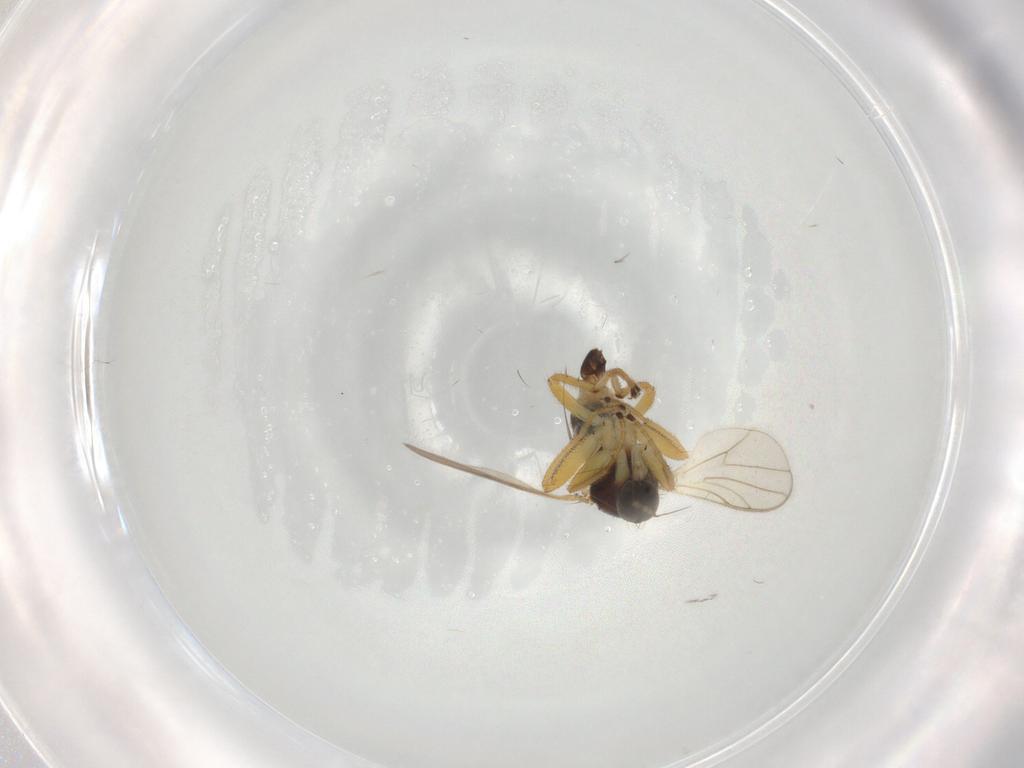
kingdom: Animalia
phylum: Arthropoda
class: Insecta
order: Diptera
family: Hybotidae
